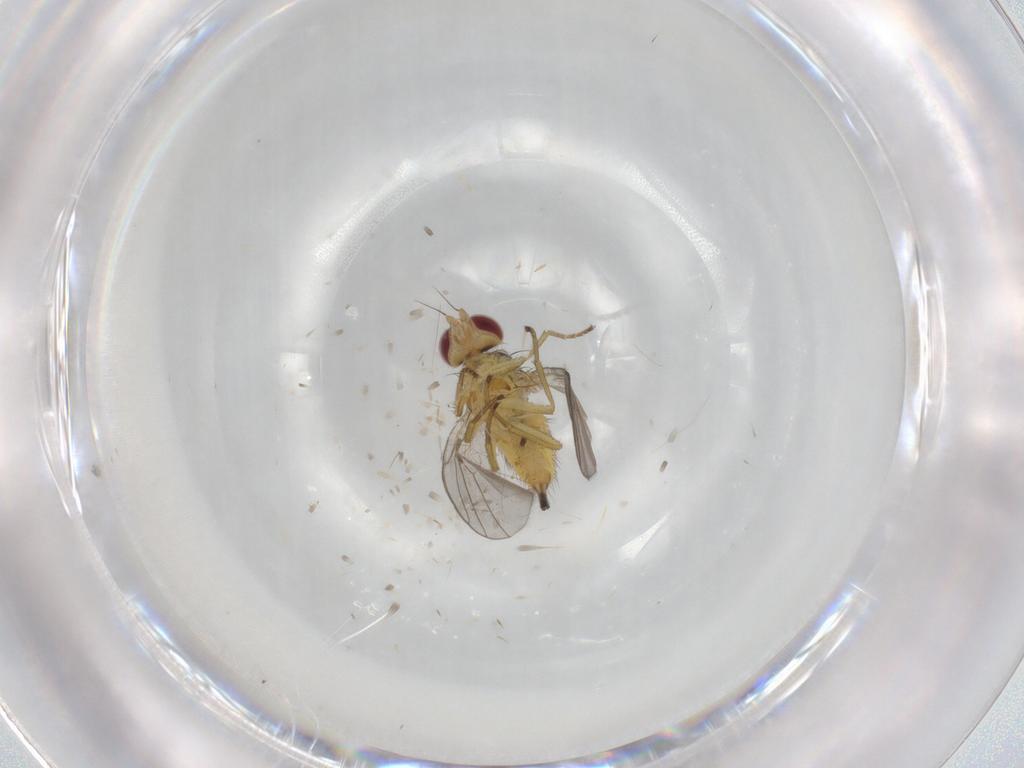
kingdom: Animalia
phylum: Arthropoda
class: Insecta
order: Diptera
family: Agromyzidae
